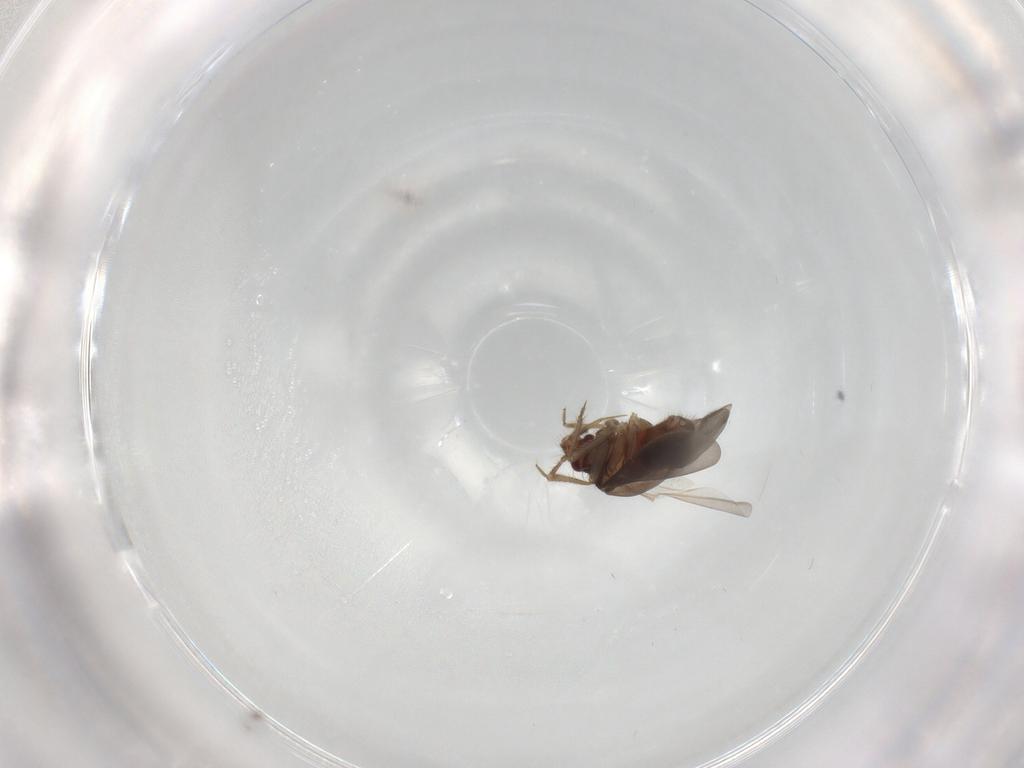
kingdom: Animalia
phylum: Arthropoda
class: Insecta
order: Hemiptera
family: Ceratocombidae
